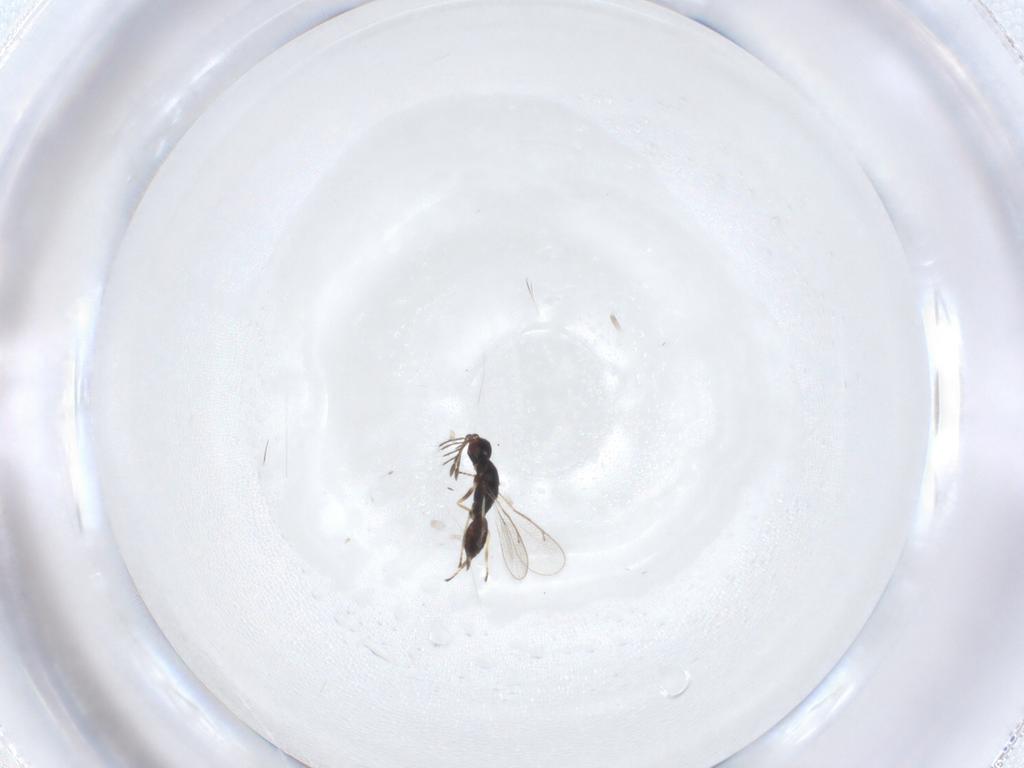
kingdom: Animalia
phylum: Arthropoda
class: Insecta
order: Hymenoptera
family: Eulophidae
